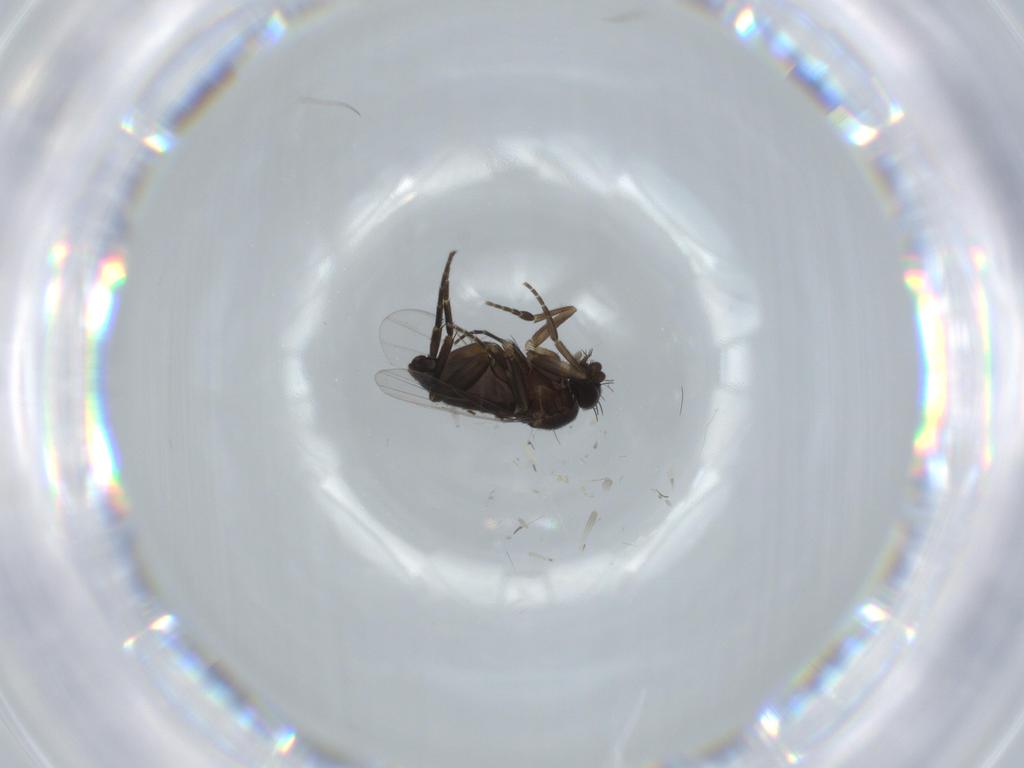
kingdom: Animalia
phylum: Arthropoda
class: Insecta
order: Diptera
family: Phoridae
